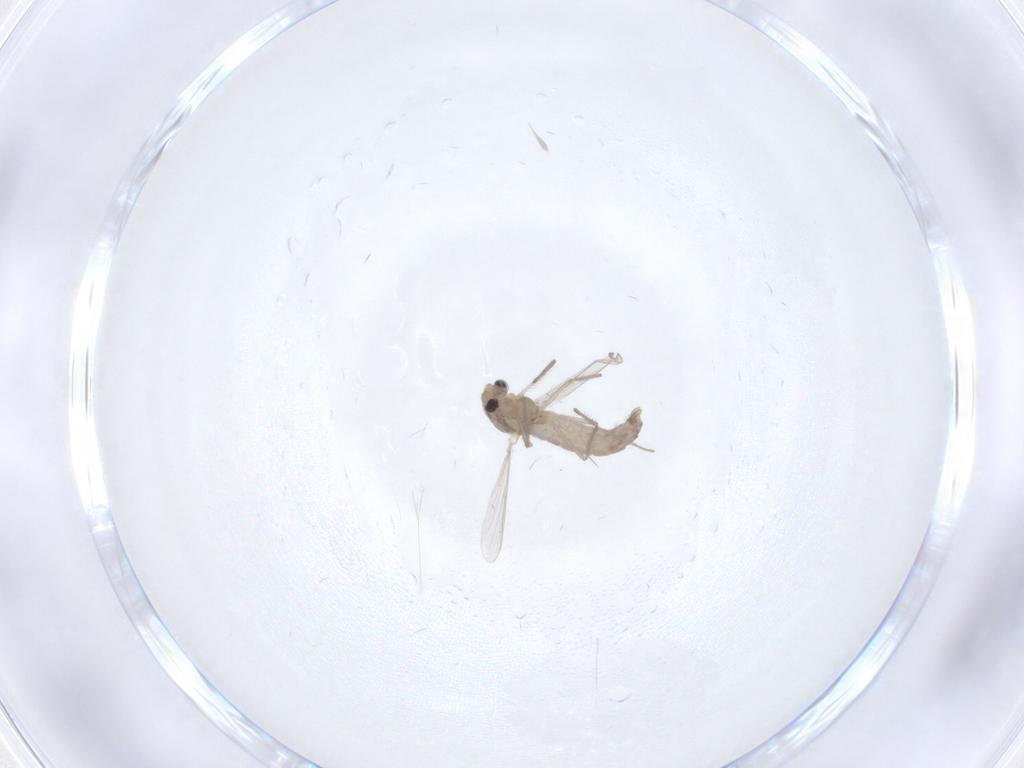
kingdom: Animalia
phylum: Arthropoda
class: Insecta
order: Diptera
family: Chironomidae
